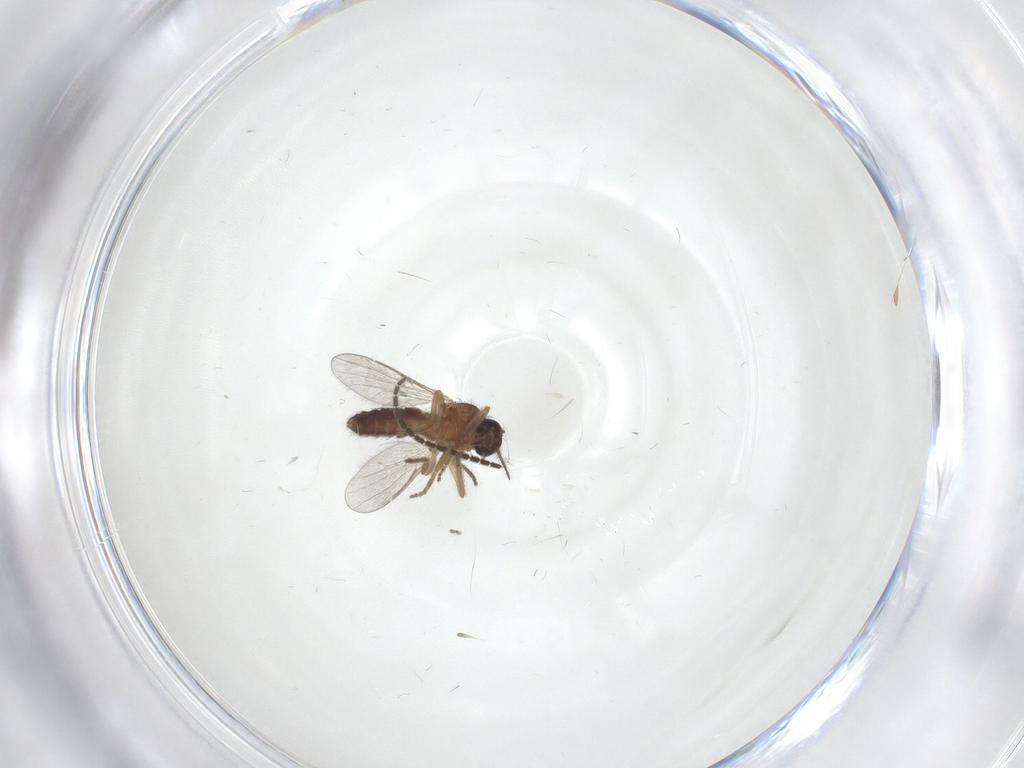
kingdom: Animalia
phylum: Arthropoda
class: Insecta
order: Diptera
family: Ceratopogonidae
